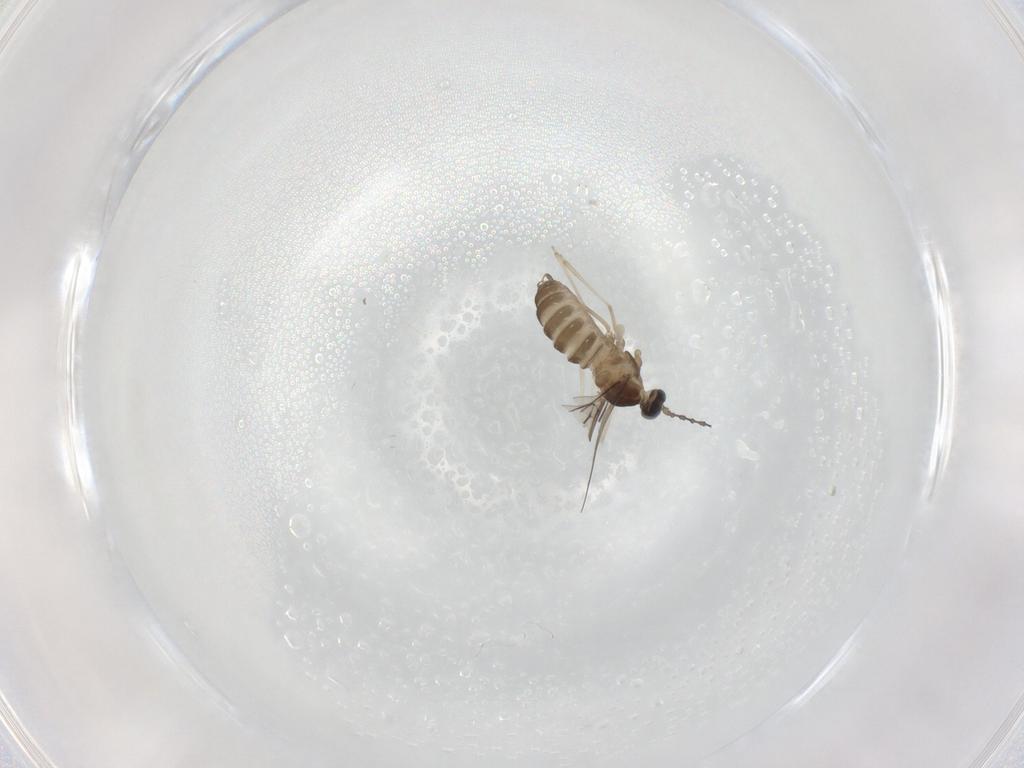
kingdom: Animalia
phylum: Arthropoda
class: Insecta
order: Diptera
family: Cecidomyiidae
